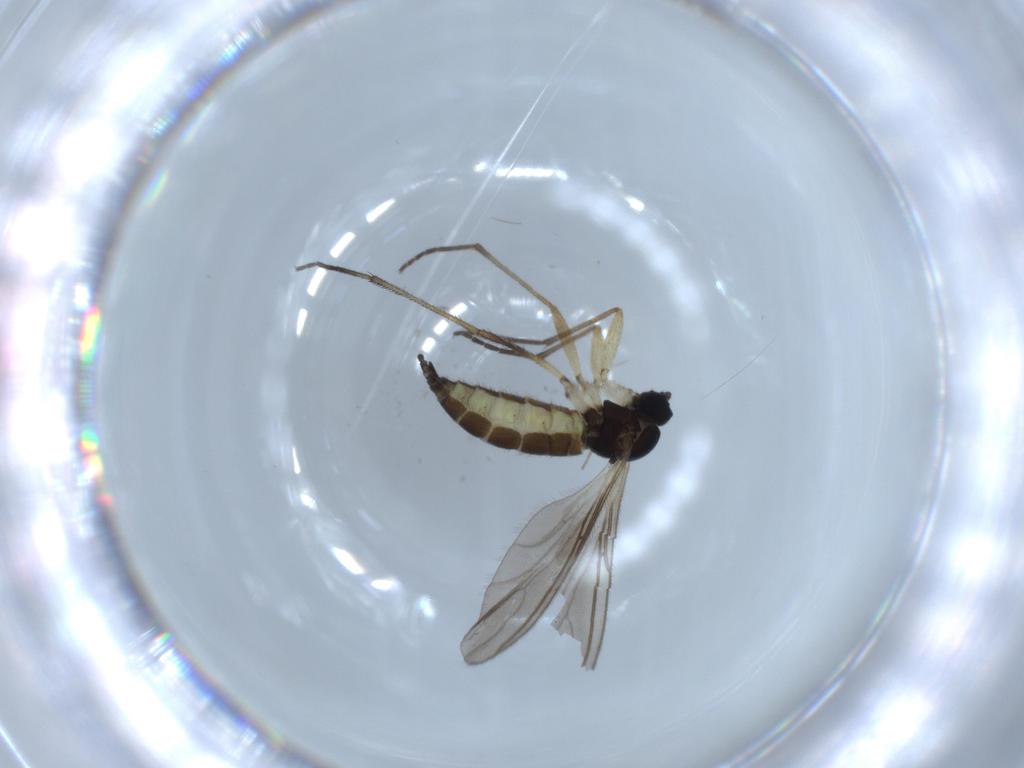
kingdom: Animalia
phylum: Arthropoda
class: Insecta
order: Diptera
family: Sciaridae
